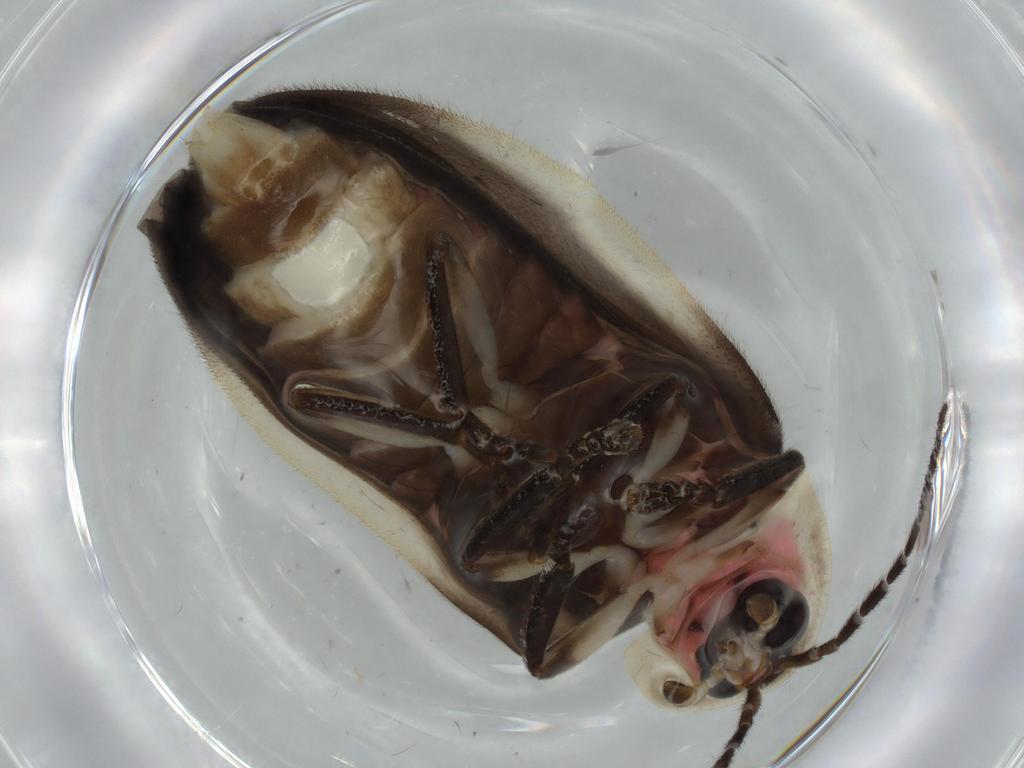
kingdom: Animalia
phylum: Arthropoda
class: Insecta
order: Coleoptera
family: Lampyridae
